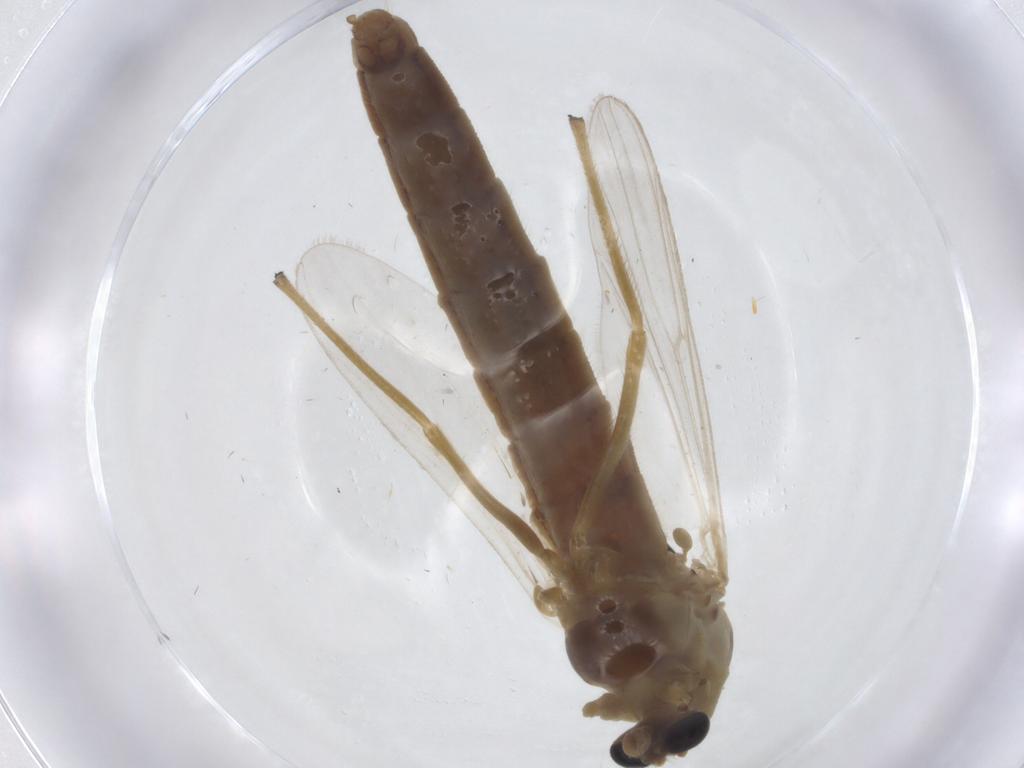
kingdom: Animalia
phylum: Arthropoda
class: Insecta
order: Diptera
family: Chironomidae
